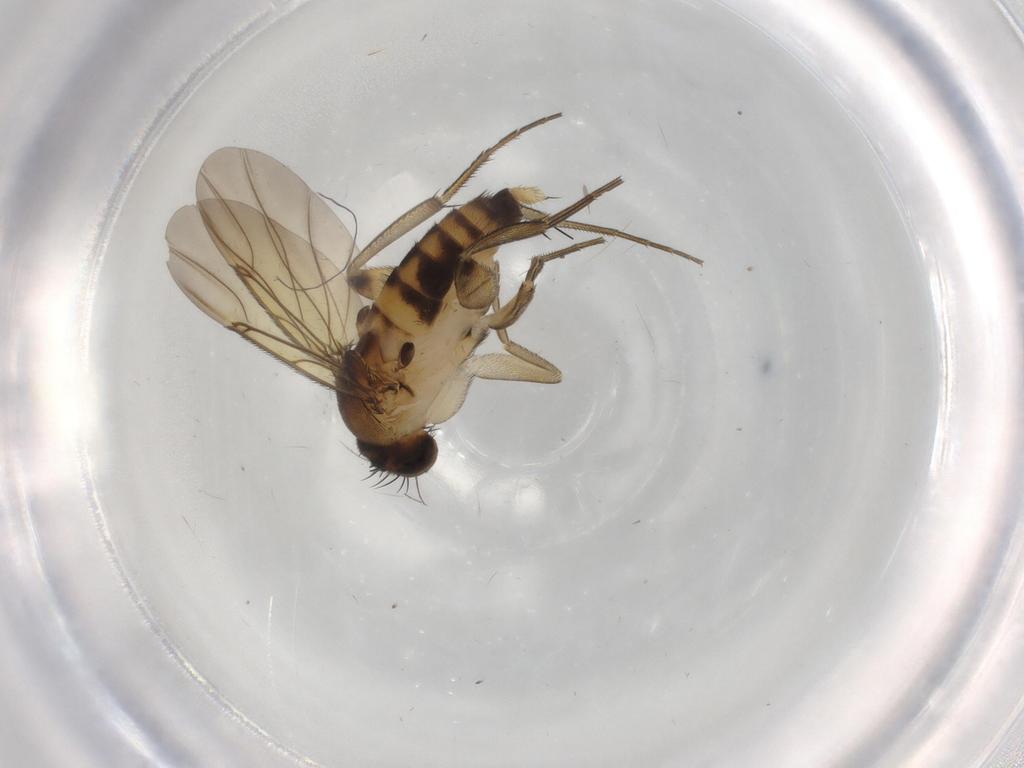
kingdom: Animalia
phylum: Arthropoda
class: Insecta
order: Diptera
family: Phoridae
